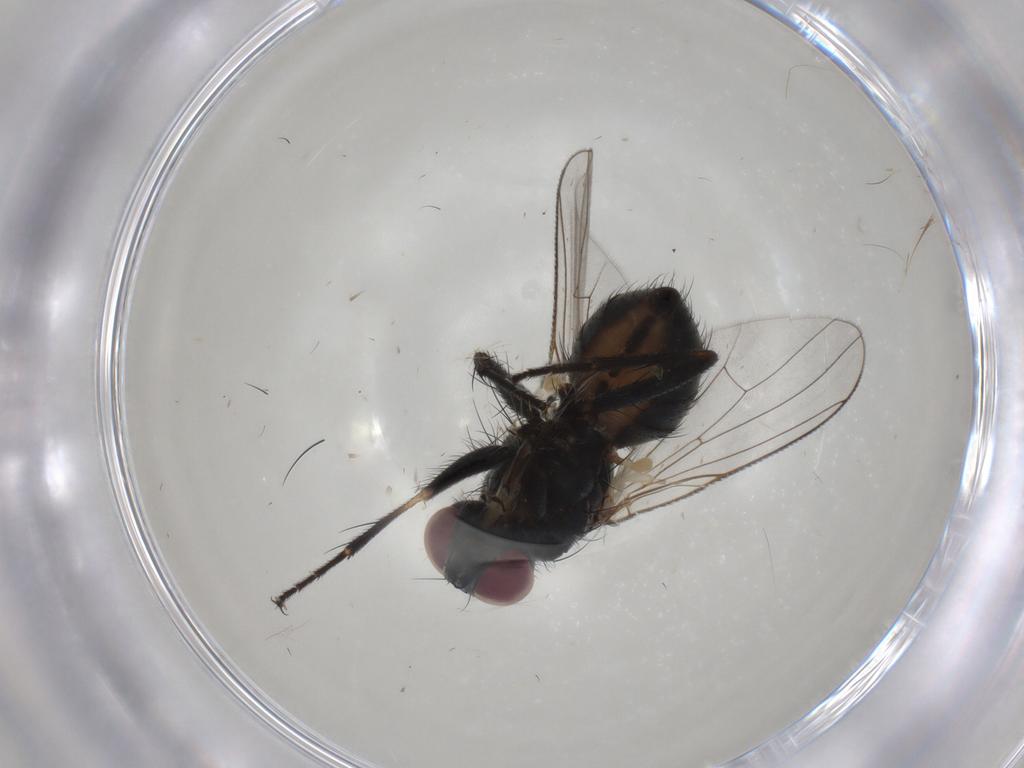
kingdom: Animalia
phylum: Arthropoda
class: Insecta
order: Diptera
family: Muscidae
